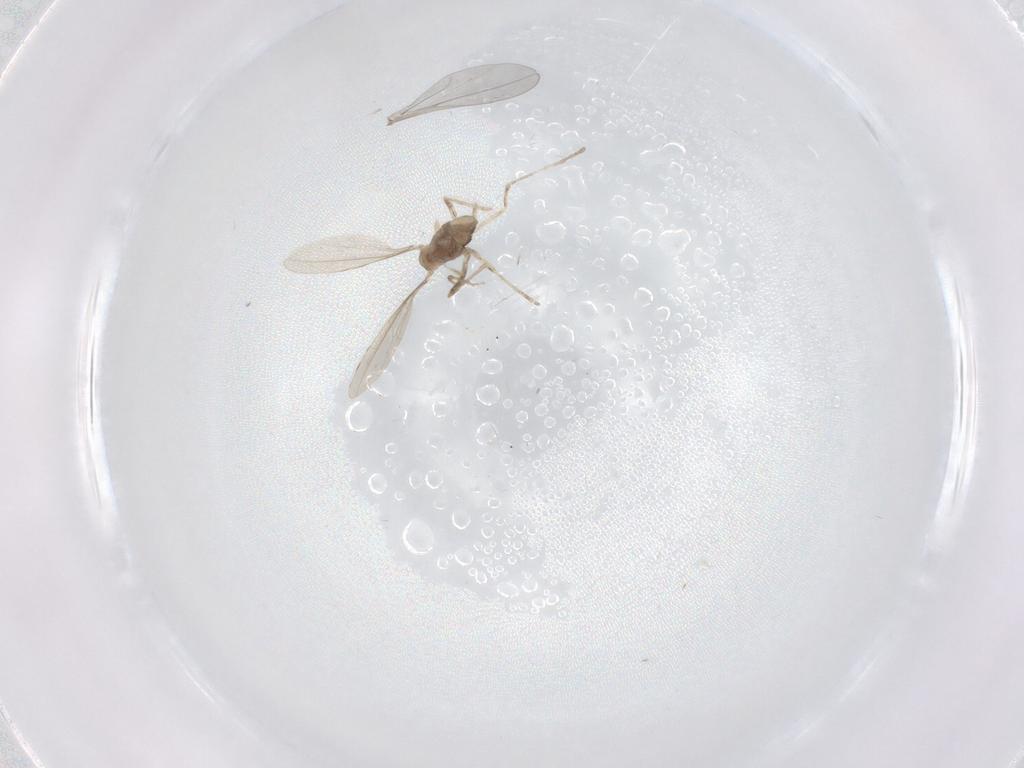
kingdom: Animalia
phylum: Arthropoda
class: Insecta
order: Diptera
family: Cecidomyiidae
